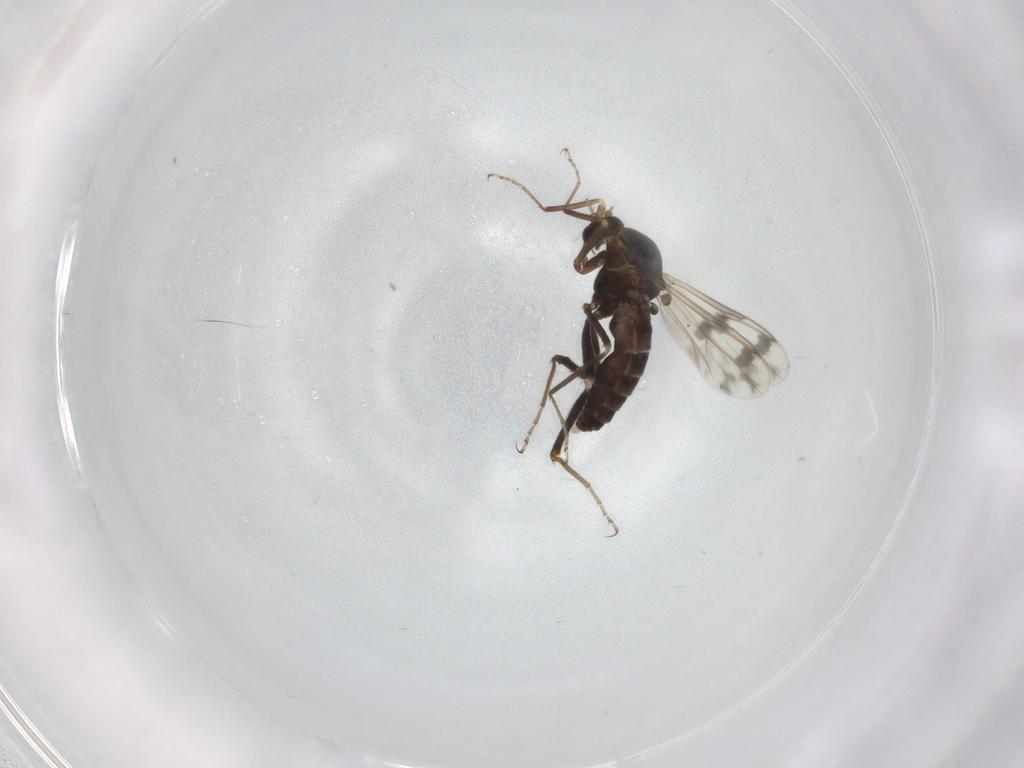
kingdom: Animalia
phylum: Arthropoda
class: Insecta
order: Diptera
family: Ceratopogonidae
